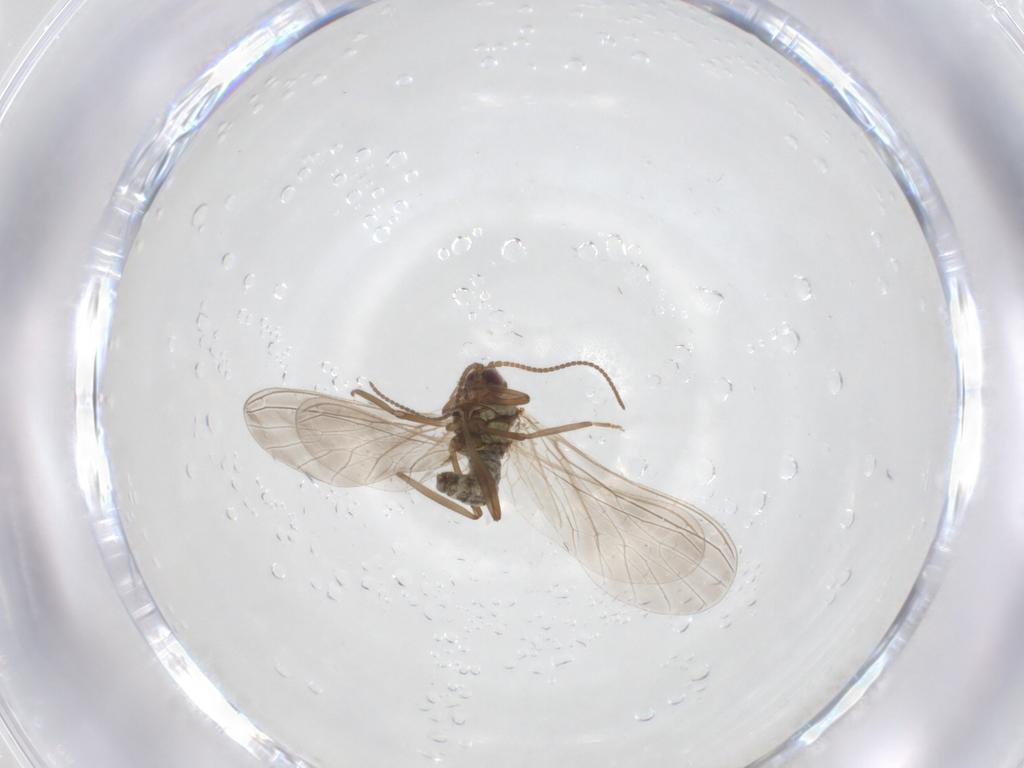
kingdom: Animalia
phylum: Arthropoda
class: Insecta
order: Neuroptera
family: Coniopterygidae
